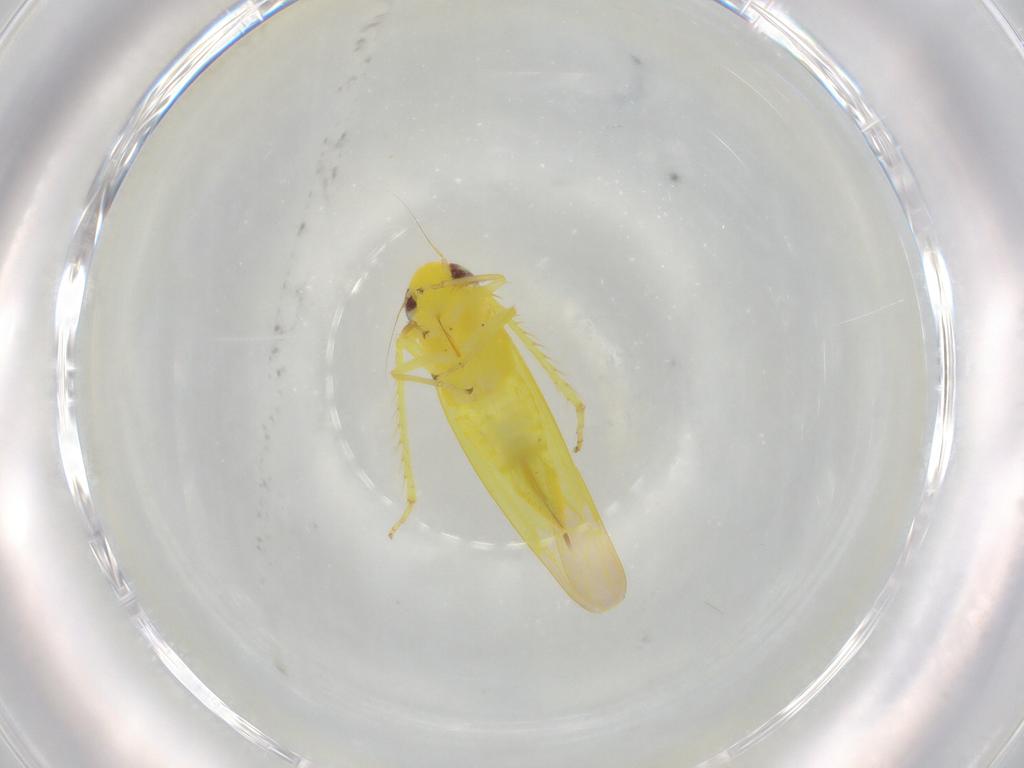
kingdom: Animalia
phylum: Arthropoda
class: Insecta
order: Hemiptera
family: Cicadellidae
